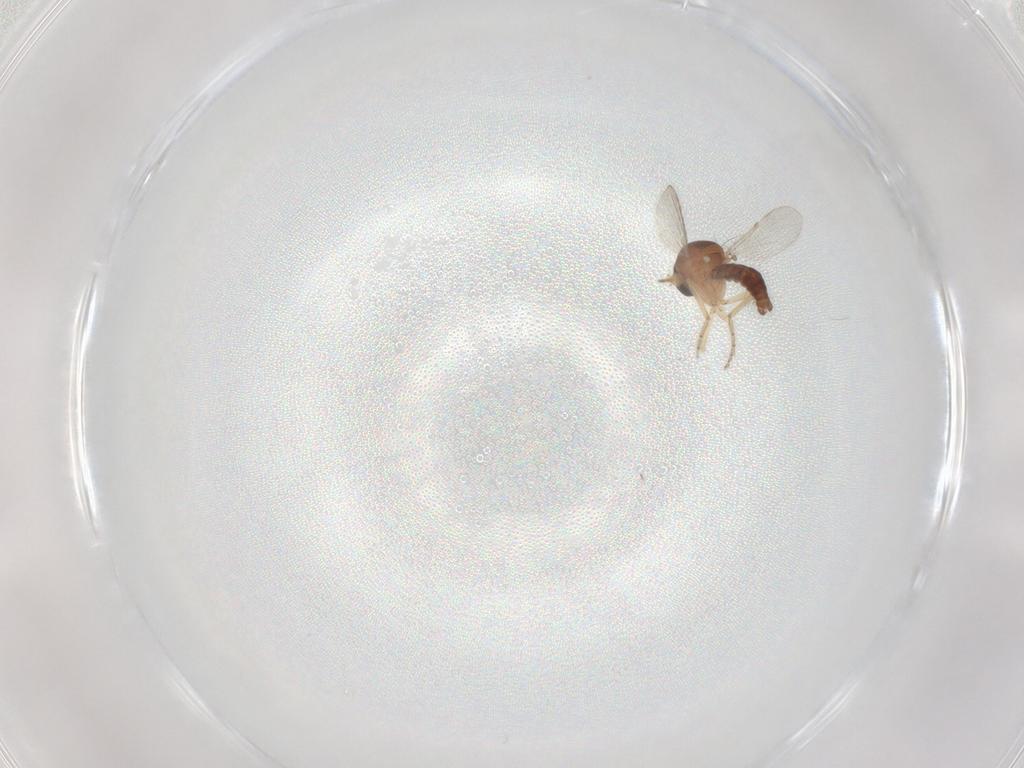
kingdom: Animalia
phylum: Arthropoda
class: Insecta
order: Diptera
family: Ceratopogonidae
